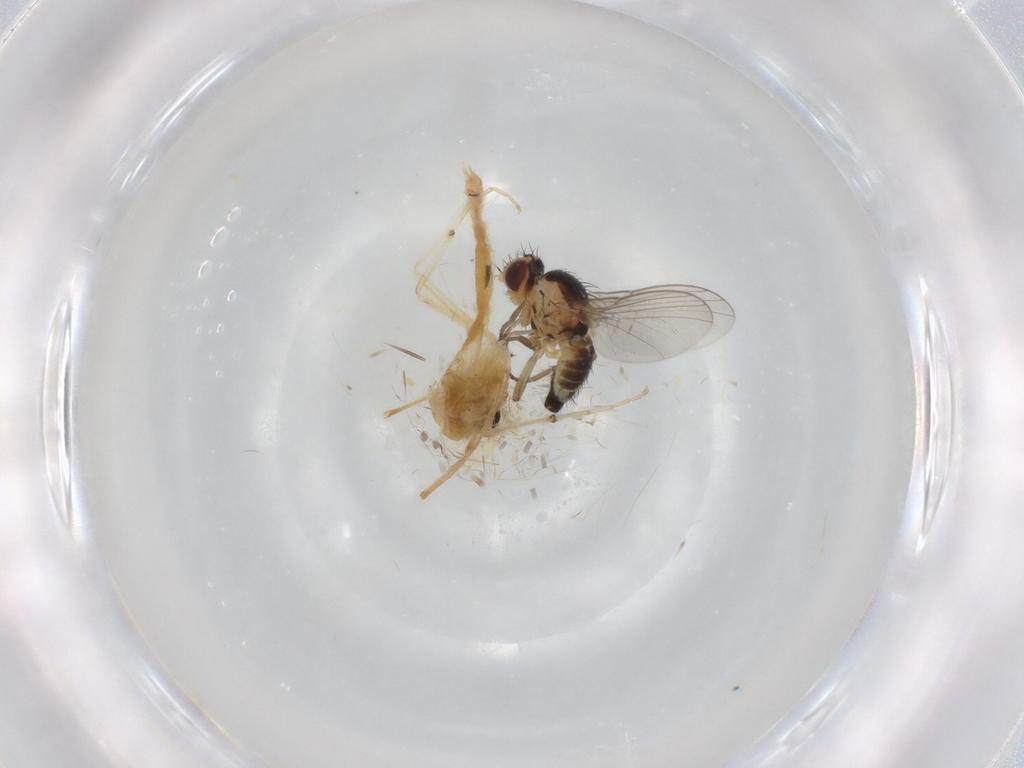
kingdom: Animalia
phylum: Arthropoda
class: Insecta
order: Diptera
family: Agromyzidae
